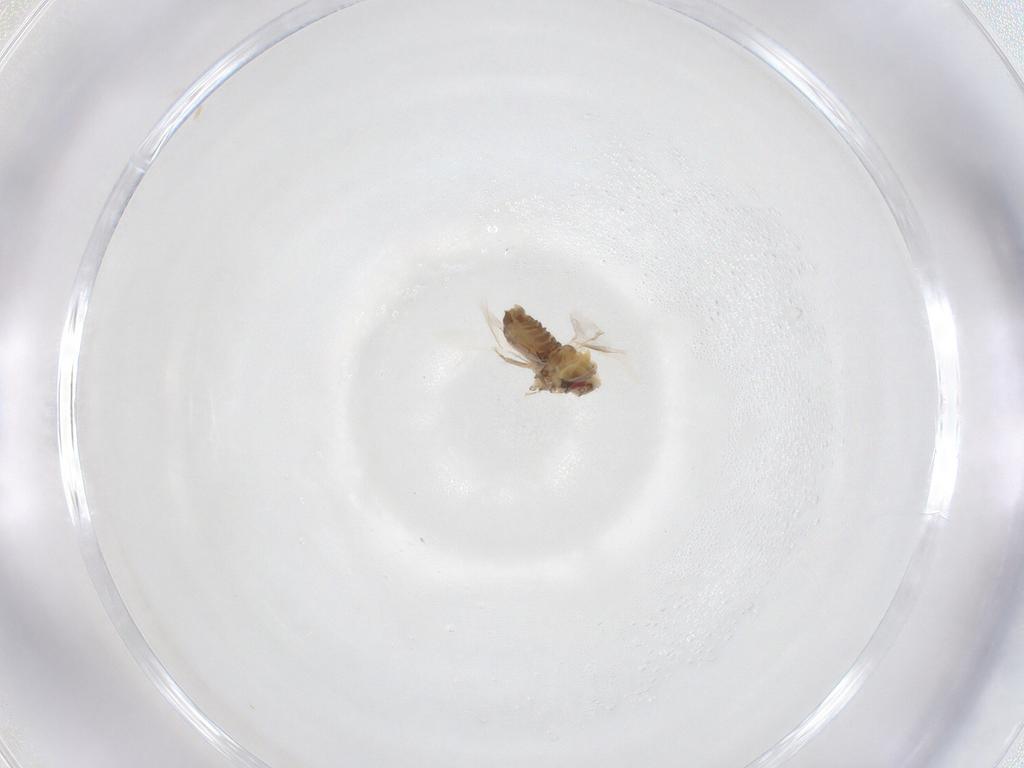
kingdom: Animalia
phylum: Arthropoda
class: Insecta
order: Hemiptera
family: Aleyrodidae
